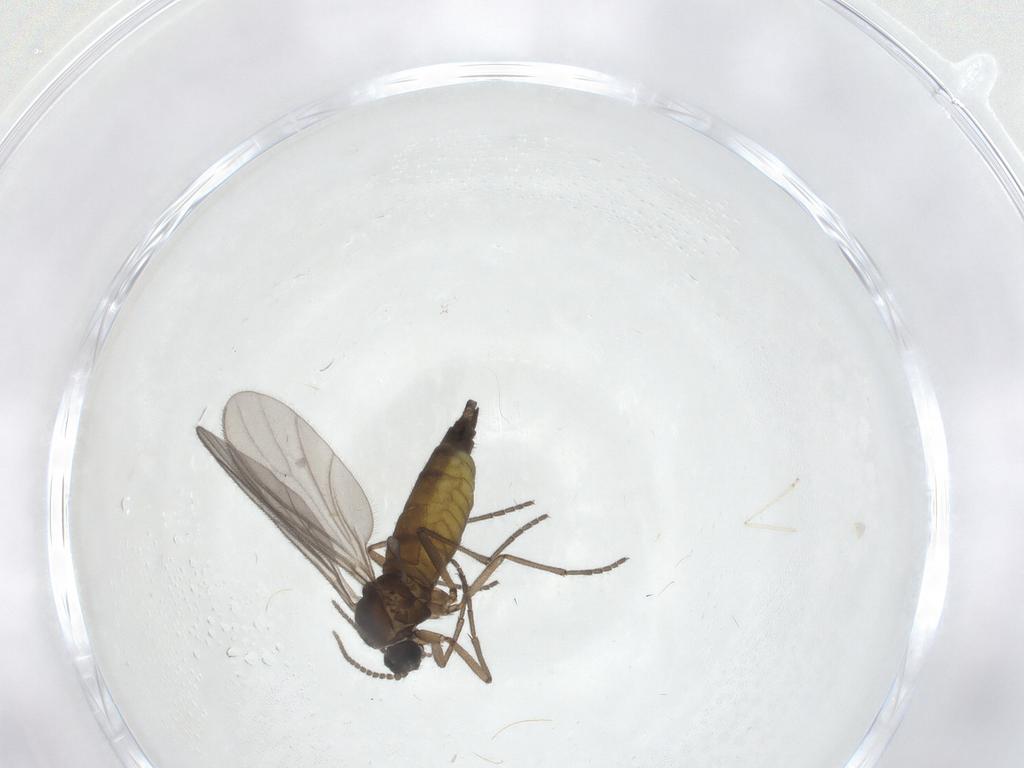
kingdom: Animalia
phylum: Arthropoda
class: Insecta
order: Diptera
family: Sciaridae
